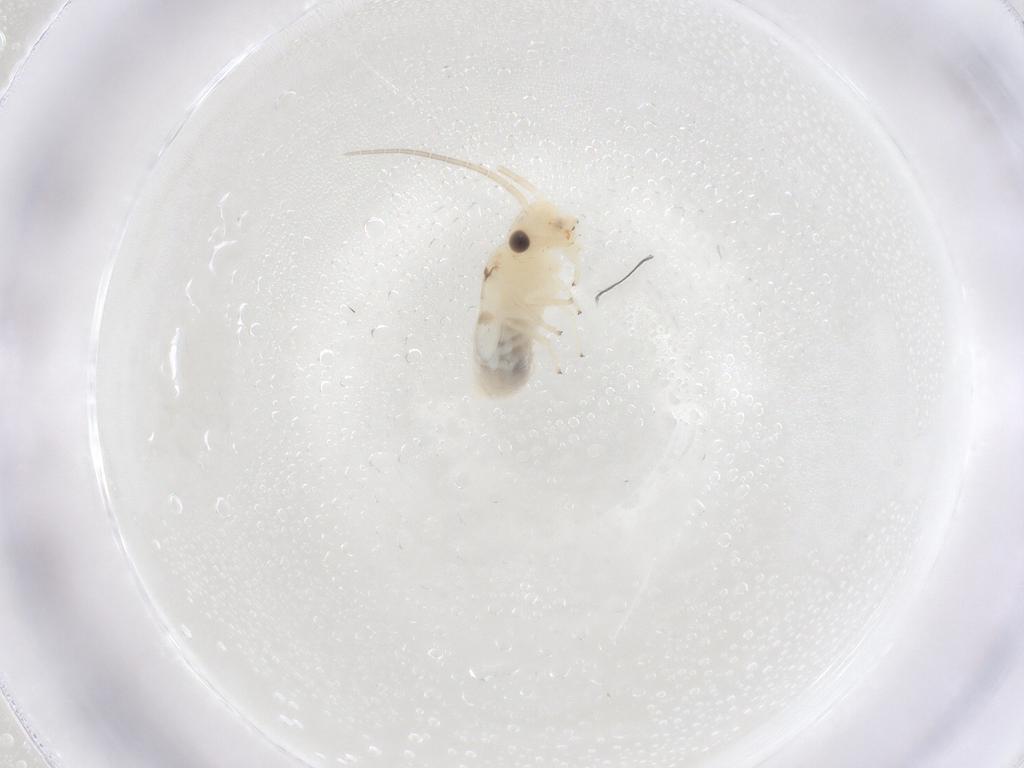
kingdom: Animalia
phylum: Arthropoda
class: Insecta
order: Psocodea
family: Caeciliusidae
